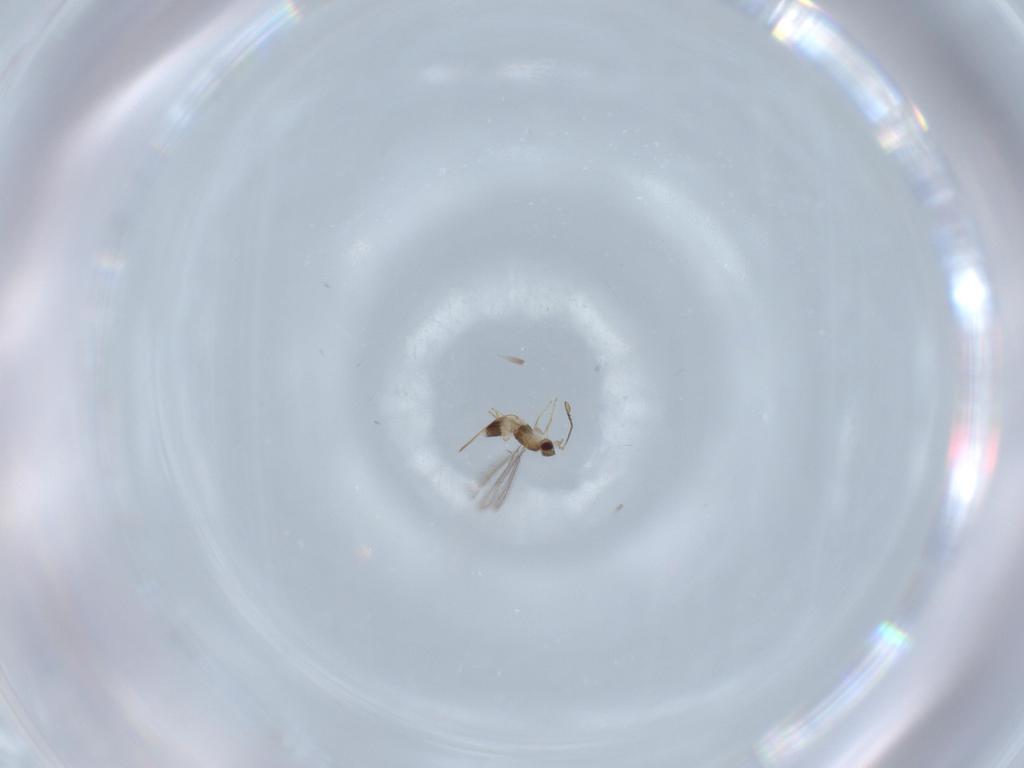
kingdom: Animalia
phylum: Arthropoda
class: Insecta
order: Hymenoptera
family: Mymaridae
